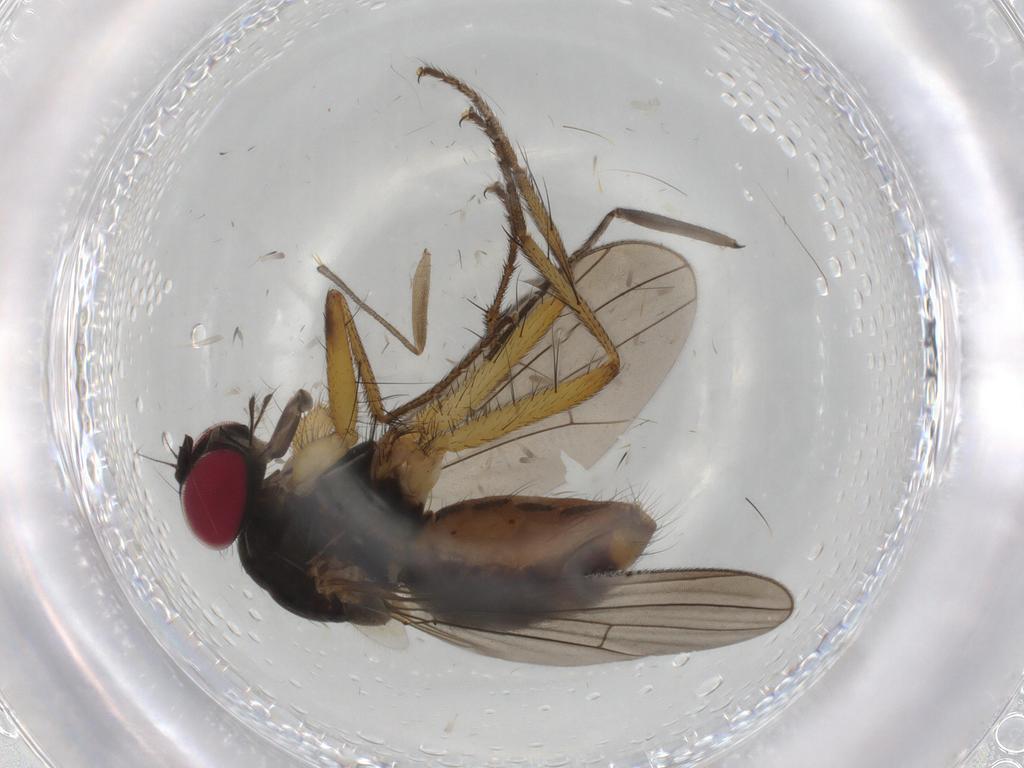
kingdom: Animalia
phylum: Arthropoda
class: Insecta
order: Diptera
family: Sciaridae
